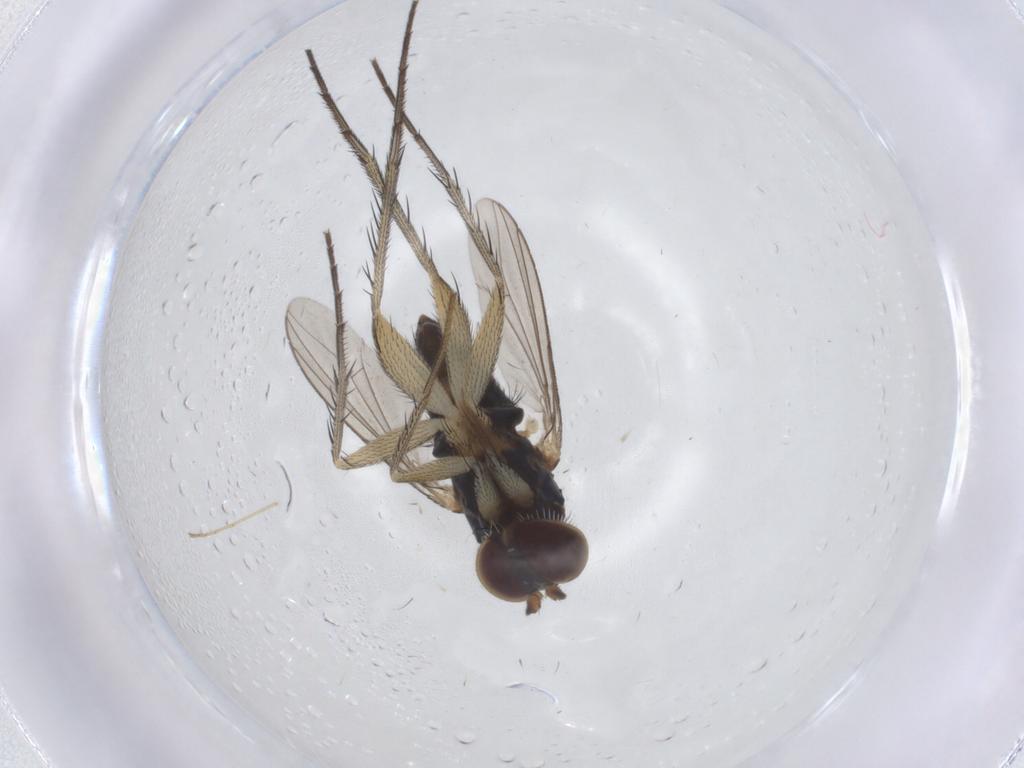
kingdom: Animalia
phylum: Arthropoda
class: Insecta
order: Diptera
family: Dolichopodidae
